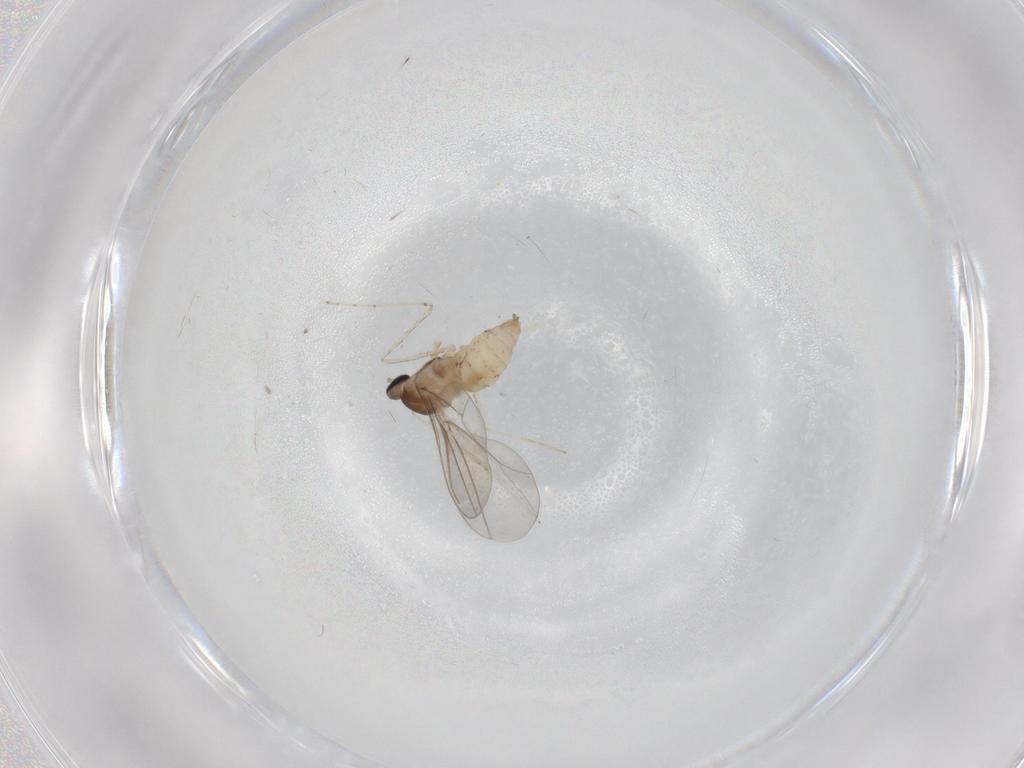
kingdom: Animalia
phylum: Arthropoda
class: Insecta
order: Diptera
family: Cecidomyiidae
